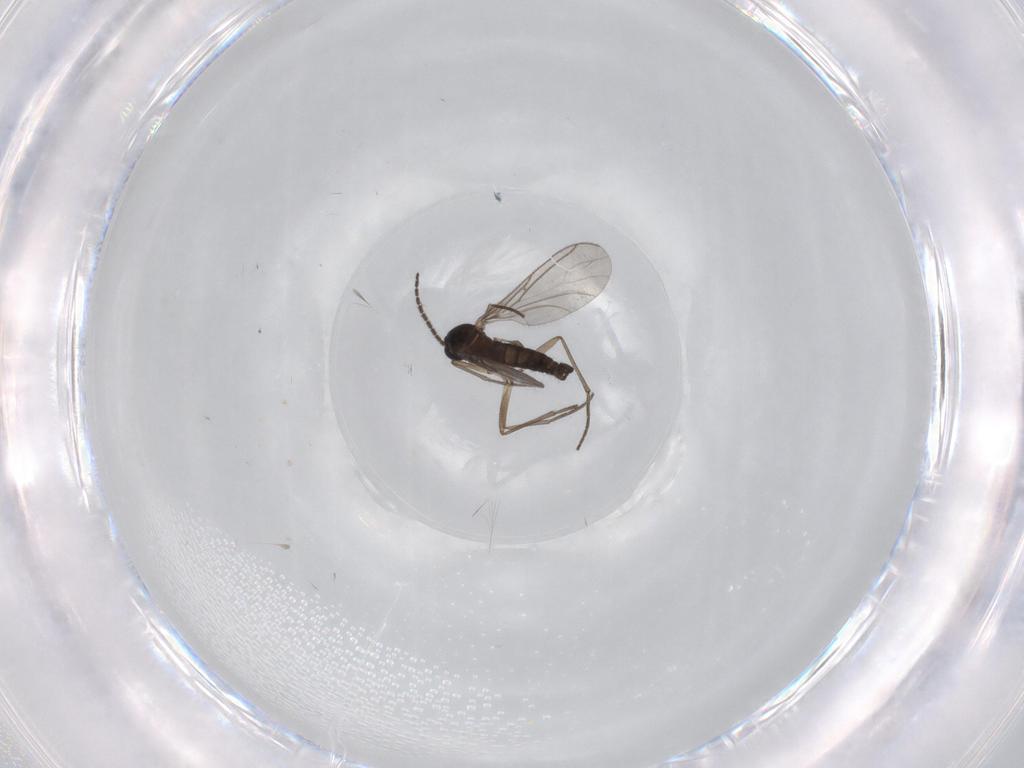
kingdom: Animalia
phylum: Arthropoda
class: Insecta
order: Diptera
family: Sciaridae
